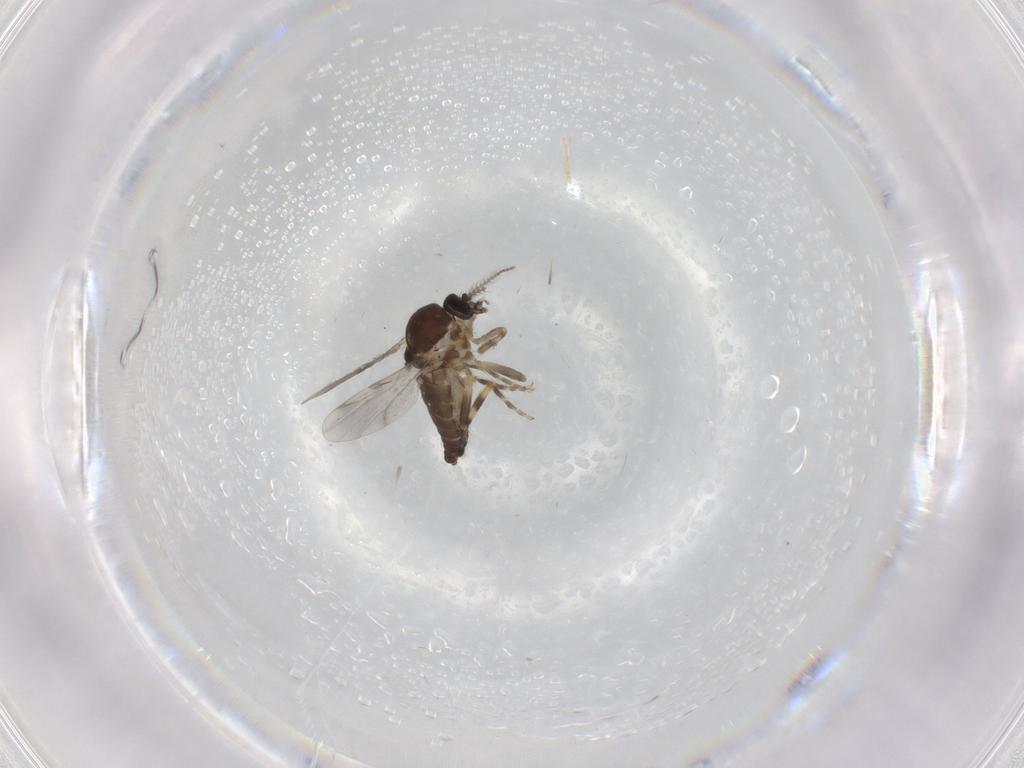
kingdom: Animalia
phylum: Arthropoda
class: Insecta
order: Diptera
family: Ceratopogonidae
